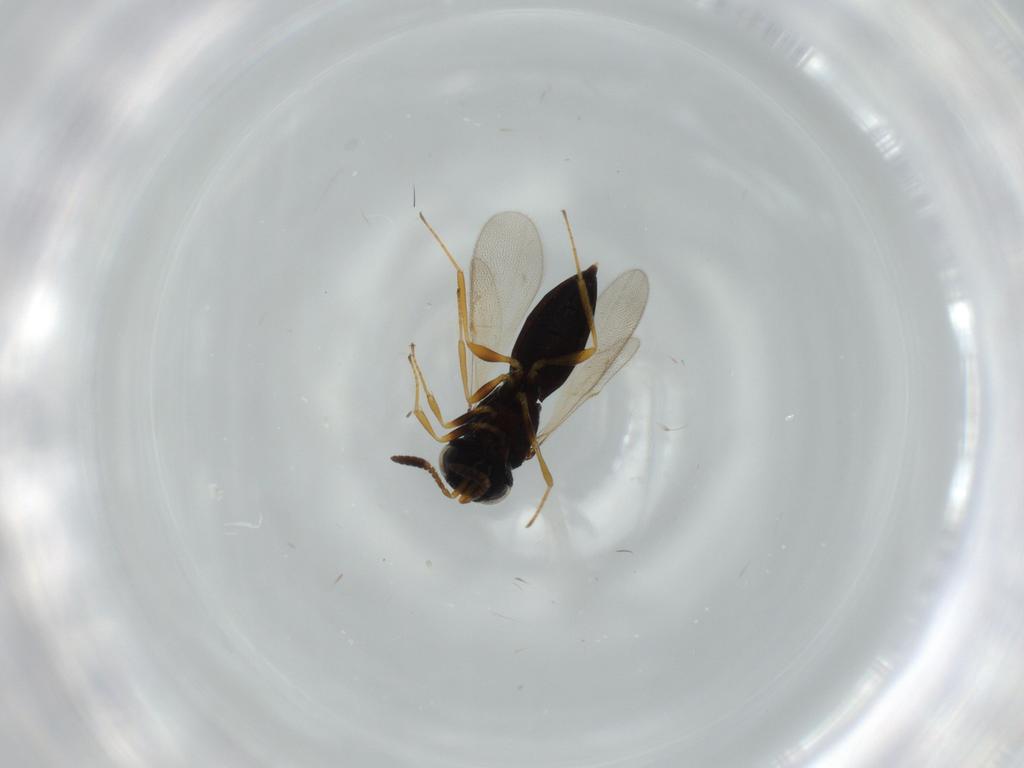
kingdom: Animalia
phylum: Arthropoda
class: Insecta
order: Hymenoptera
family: Scelionidae
